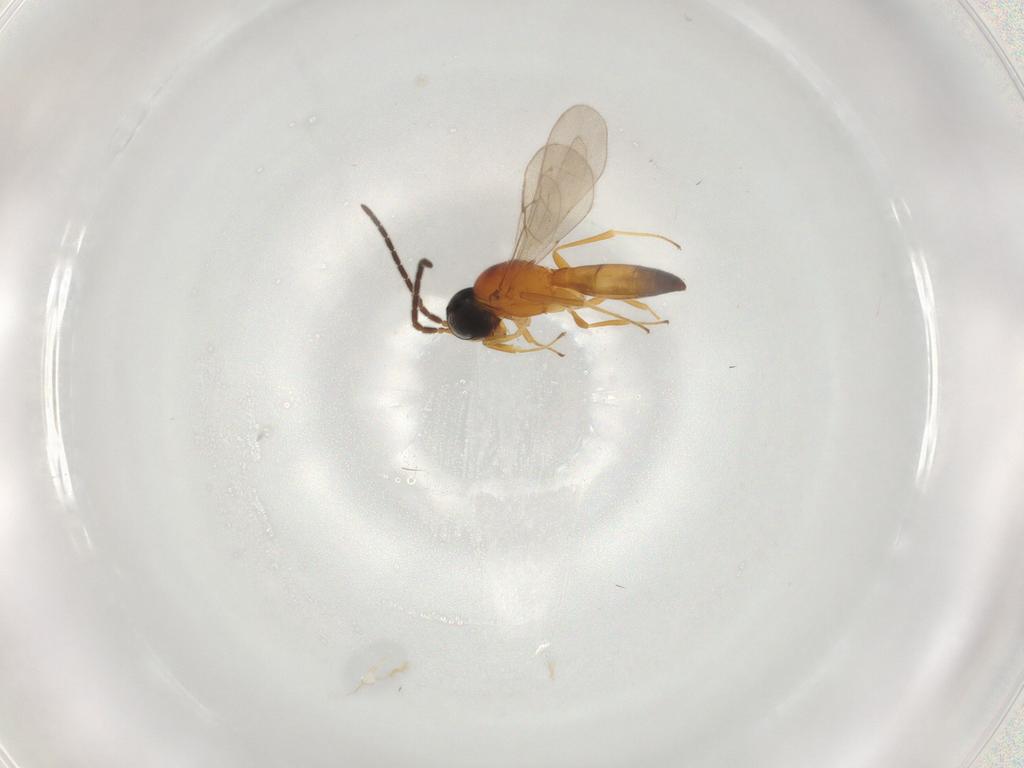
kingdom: Animalia
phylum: Arthropoda
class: Insecta
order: Hymenoptera
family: Scelionidae
